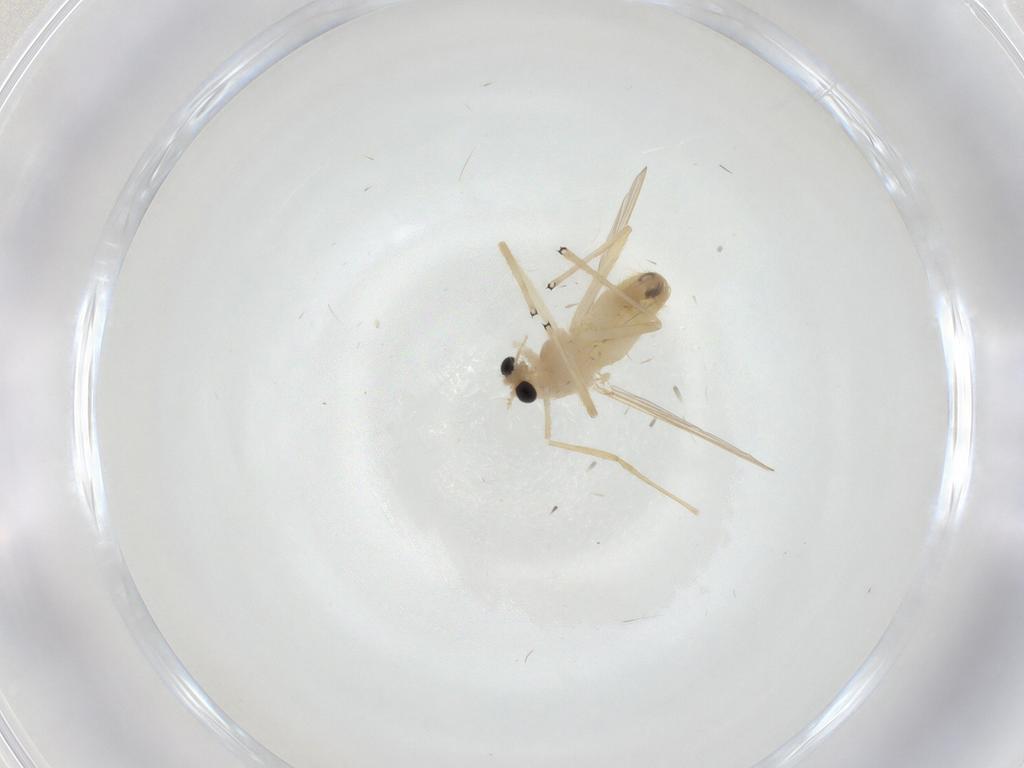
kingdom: Animalia
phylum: Arthropoda
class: Insecta
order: Diptera
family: Chironomidae
